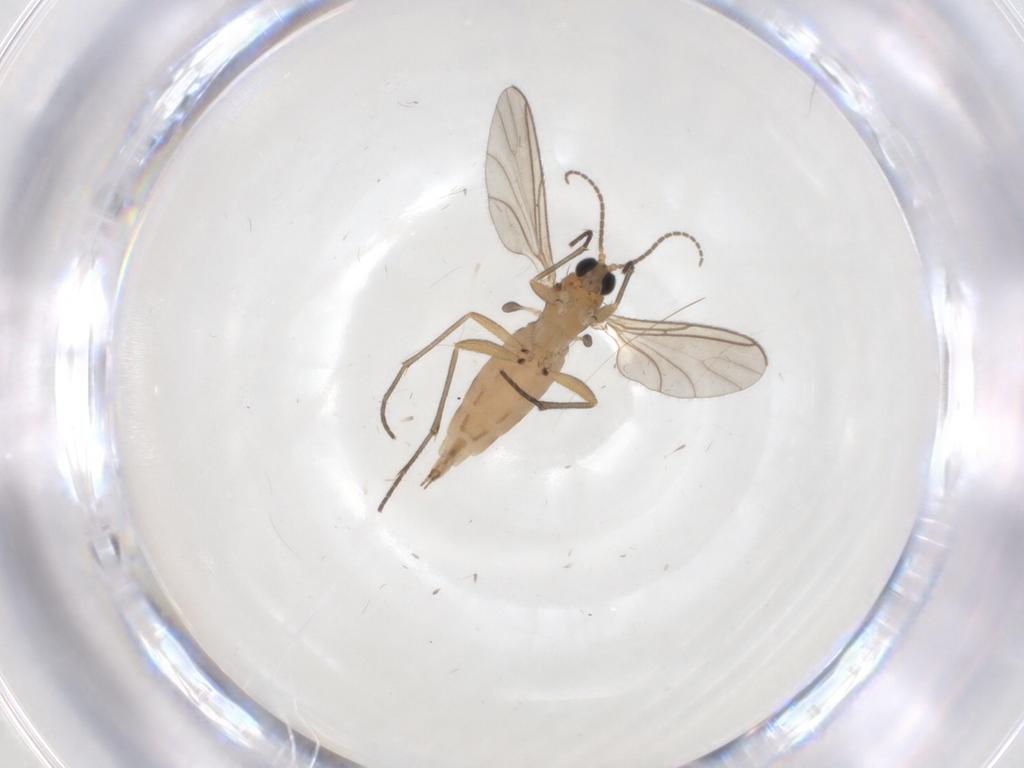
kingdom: Animalia
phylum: Arthropoda
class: Insecta
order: Diptera
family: Sciaridae
